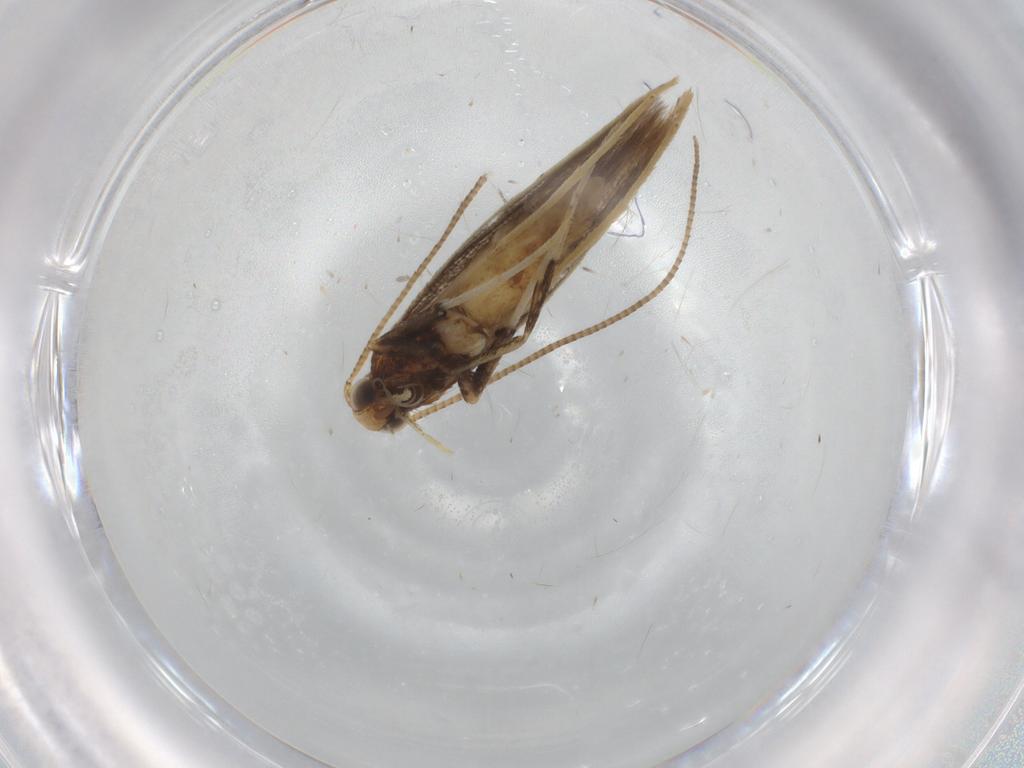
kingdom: Animalia
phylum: Arthropoda
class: Insecta
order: Lepidoptera
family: Gracillariidae
